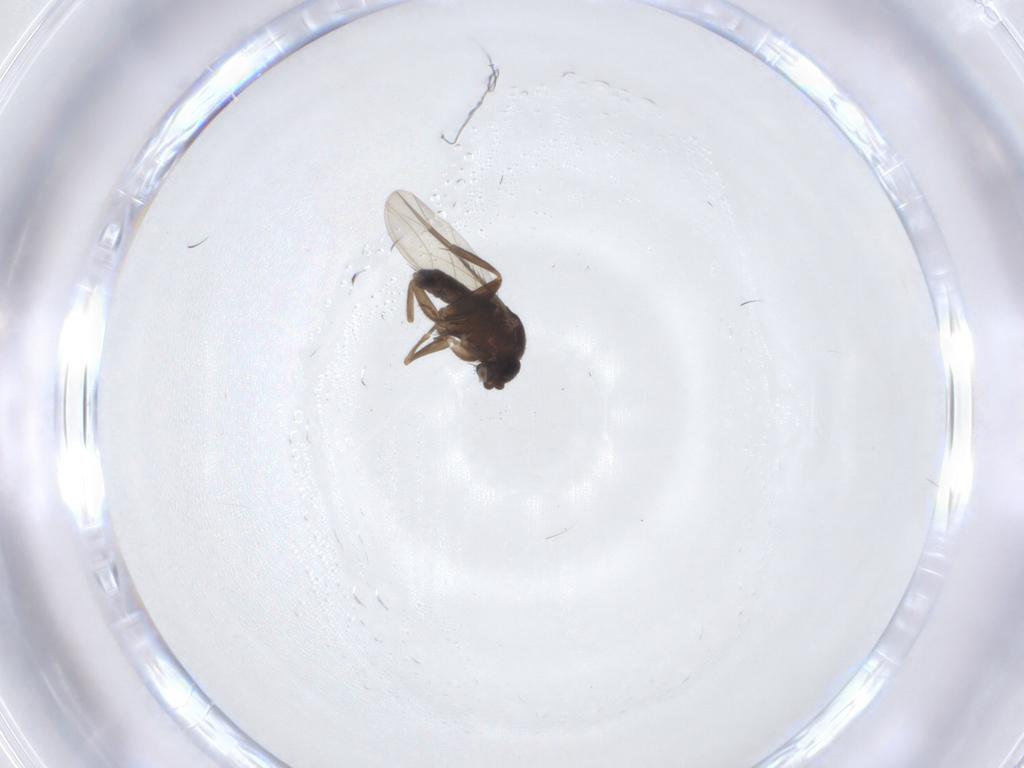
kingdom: Animalia
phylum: Arthropoda
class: Insecta
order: Diptera
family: Phoridae
